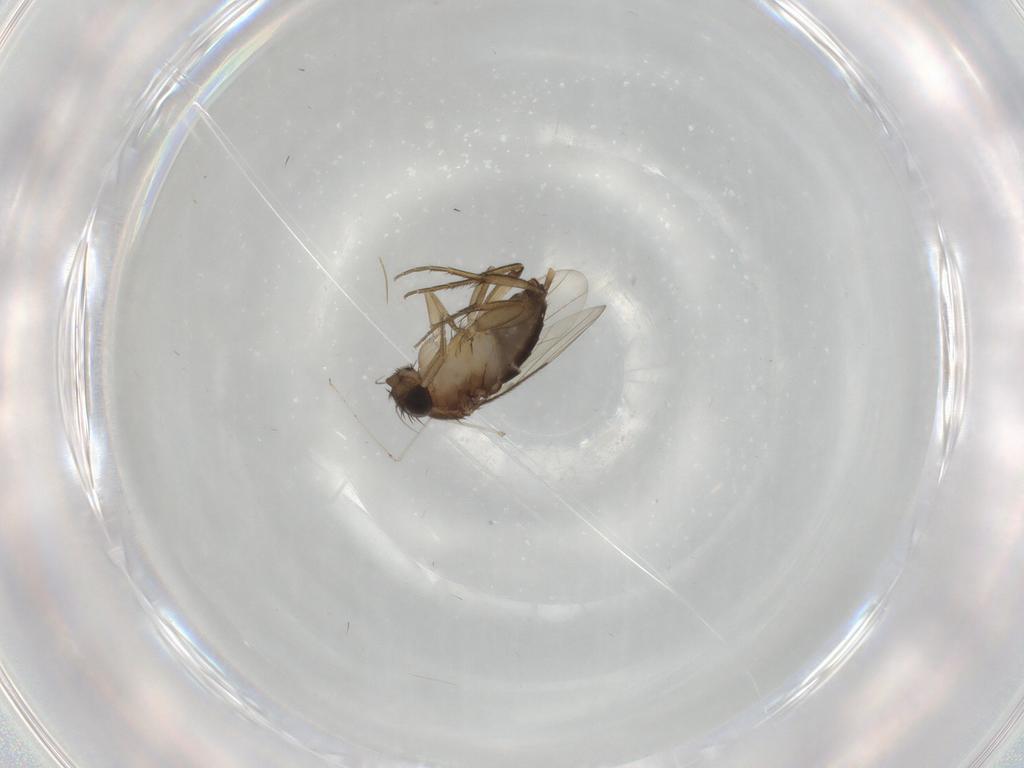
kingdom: Animalia
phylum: Arthropoda
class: Insecta
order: Diptera
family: Phoridae
